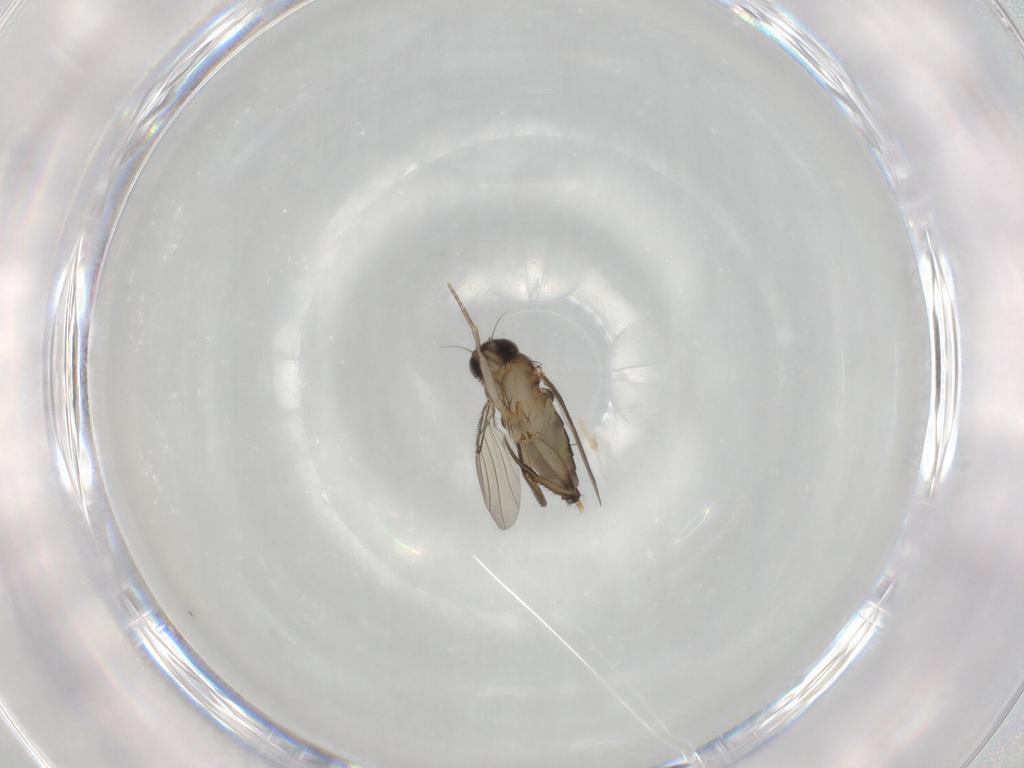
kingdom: Animalia
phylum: Arthropoda
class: Insecta
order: Diptera
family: Phoridae
